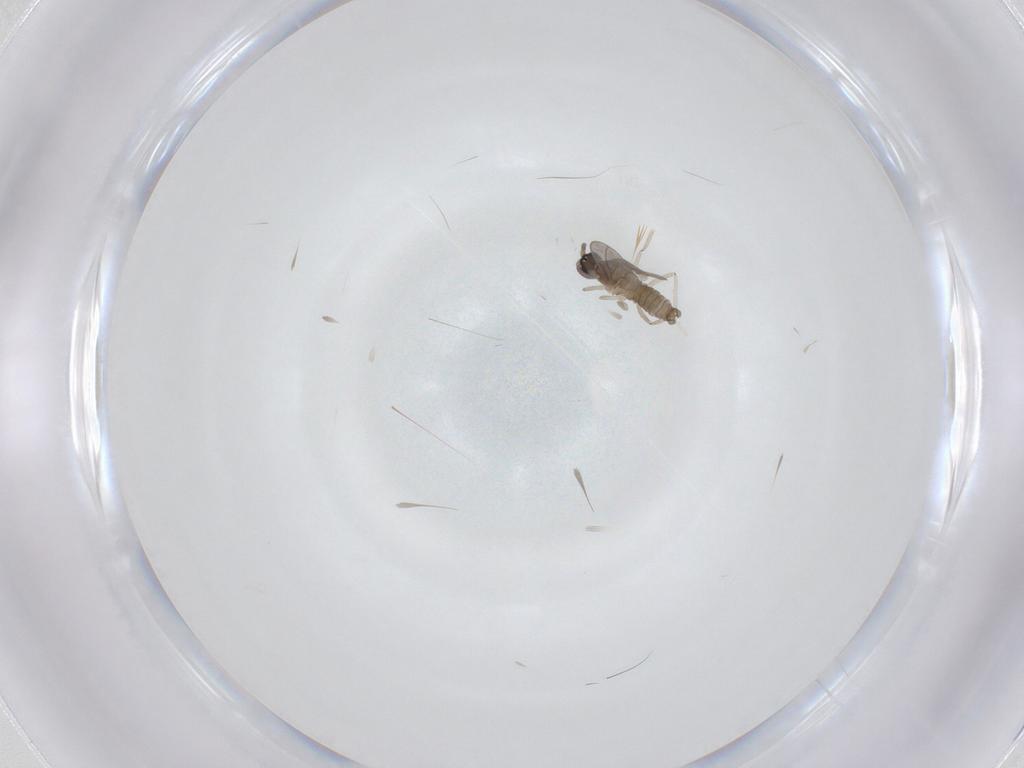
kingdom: Animalia
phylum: Arthropoda
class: Insecta
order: Diptera
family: Cecidomyiidae
